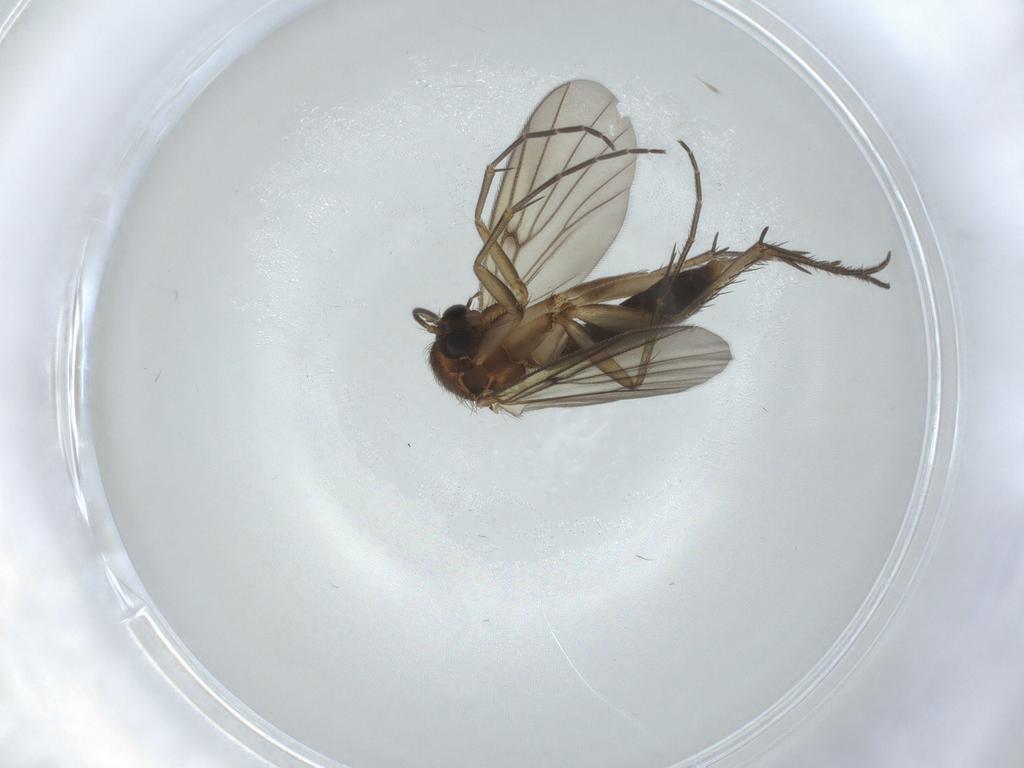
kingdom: Animalia
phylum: Arthropoda
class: Insecta
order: Diptera
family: Mycetophilidae
